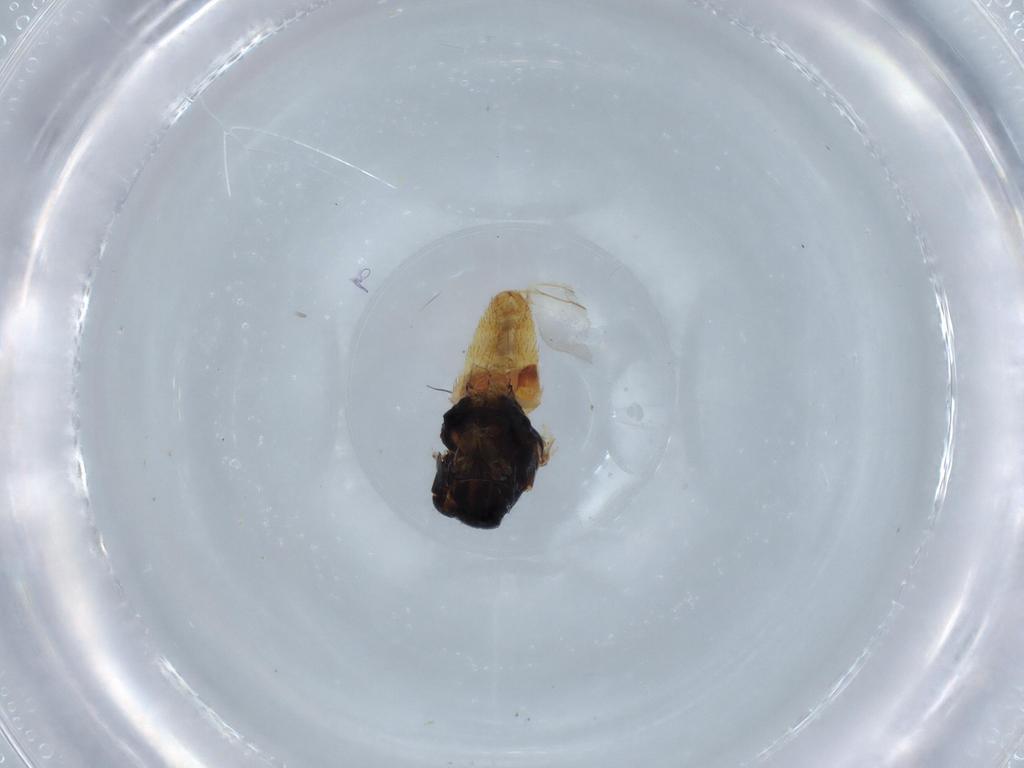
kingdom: Animalia
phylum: Arthropoda
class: Insecta
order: Diptera
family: Chloropidae
